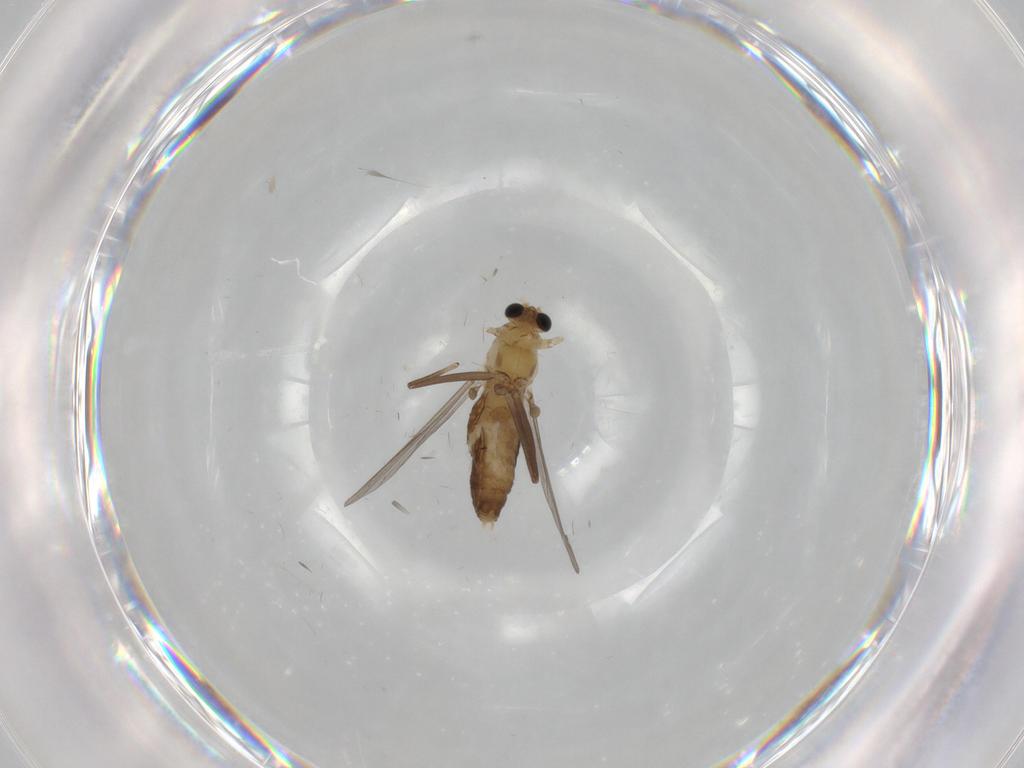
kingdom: Animalia
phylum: Arthropoda
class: Insecta
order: Diptera
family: Chironomidae
